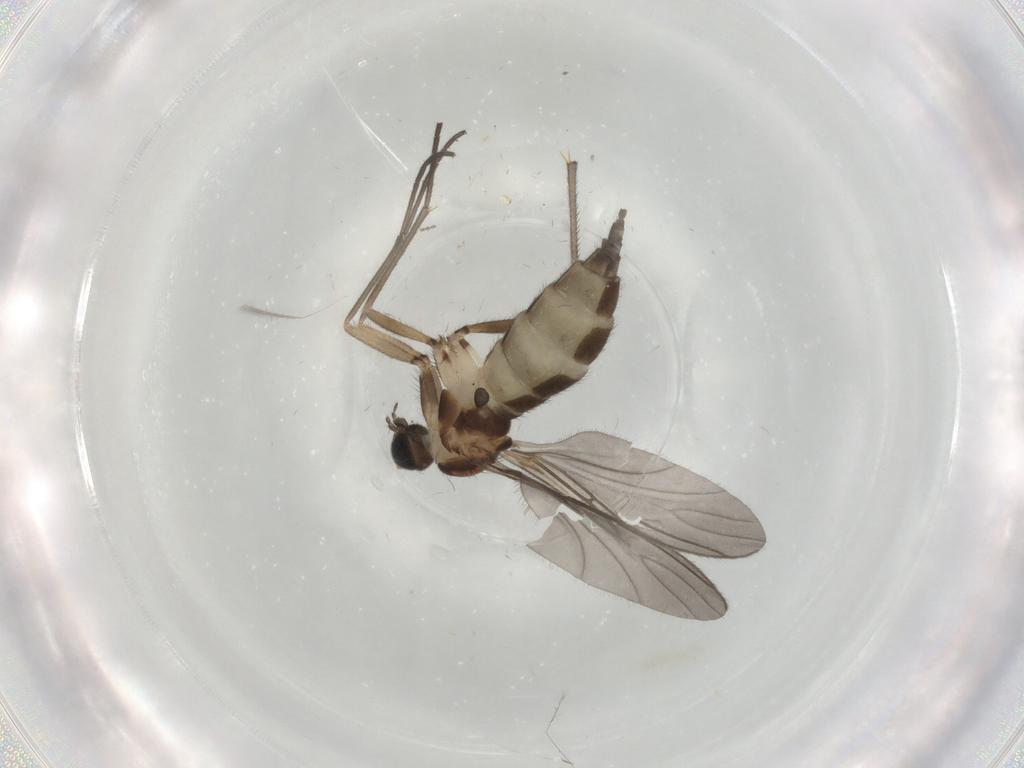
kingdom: Animalia
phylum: Arthropoda
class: Insecta
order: Diptera
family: Sciaridae
